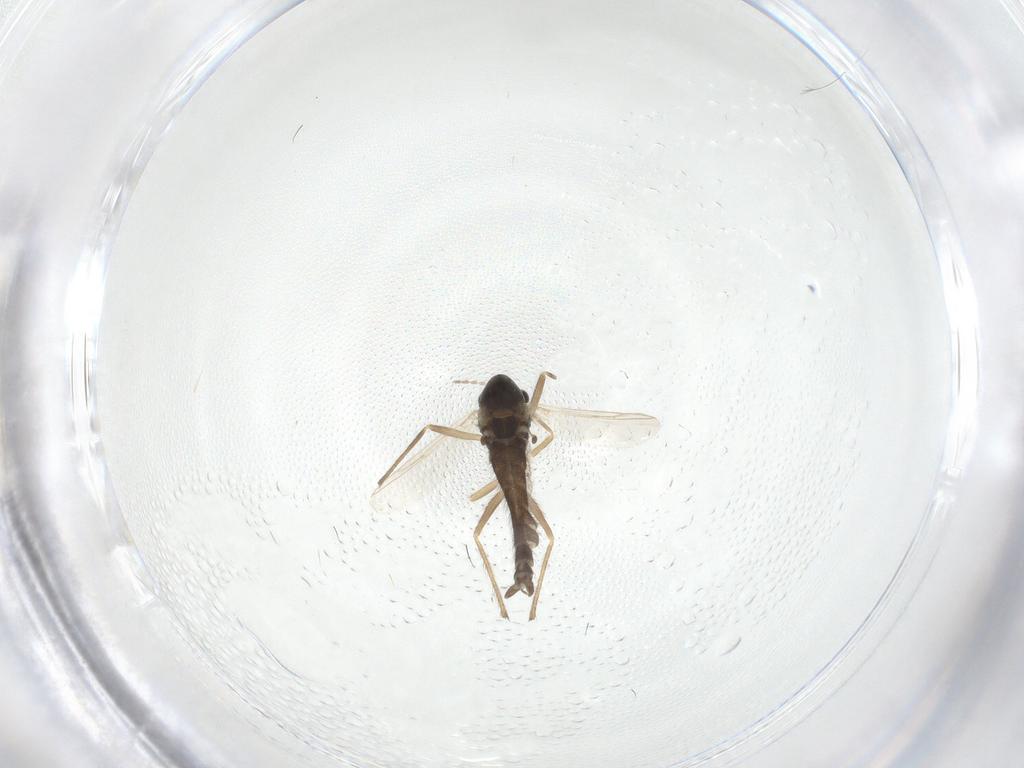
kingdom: Animalia
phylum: Arthropoda
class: Insecta
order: Diptera
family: Chironomidae
